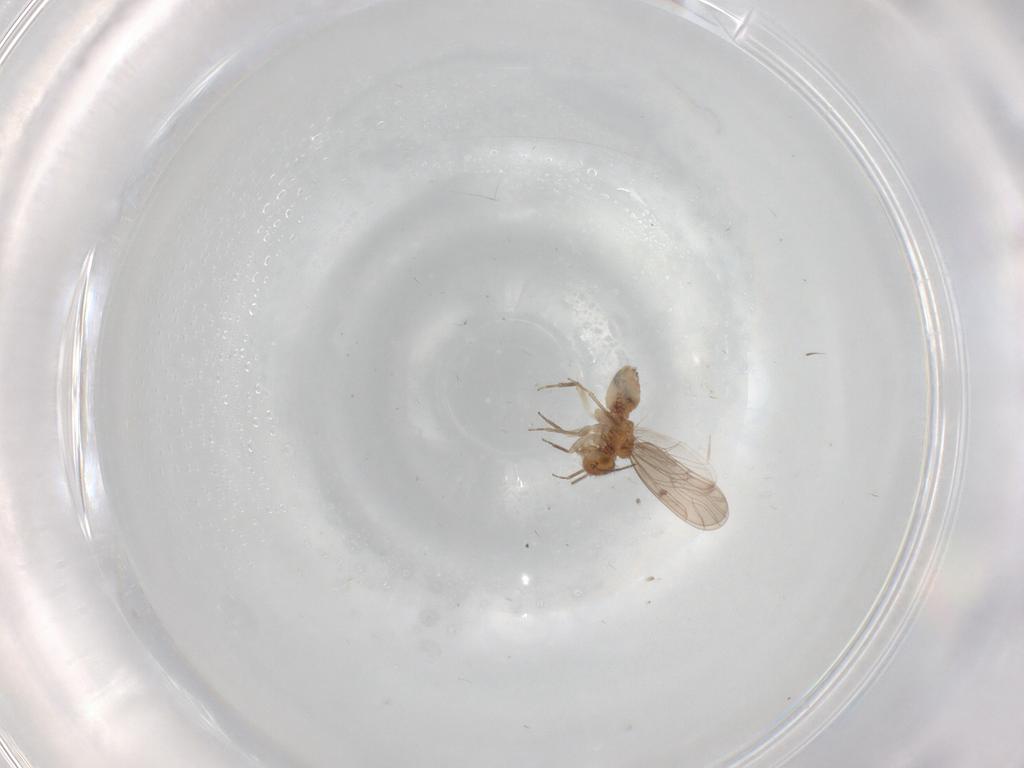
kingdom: Animalia
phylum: Arthropoda
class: Insecta
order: Psocodea
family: Ectopsocidae
